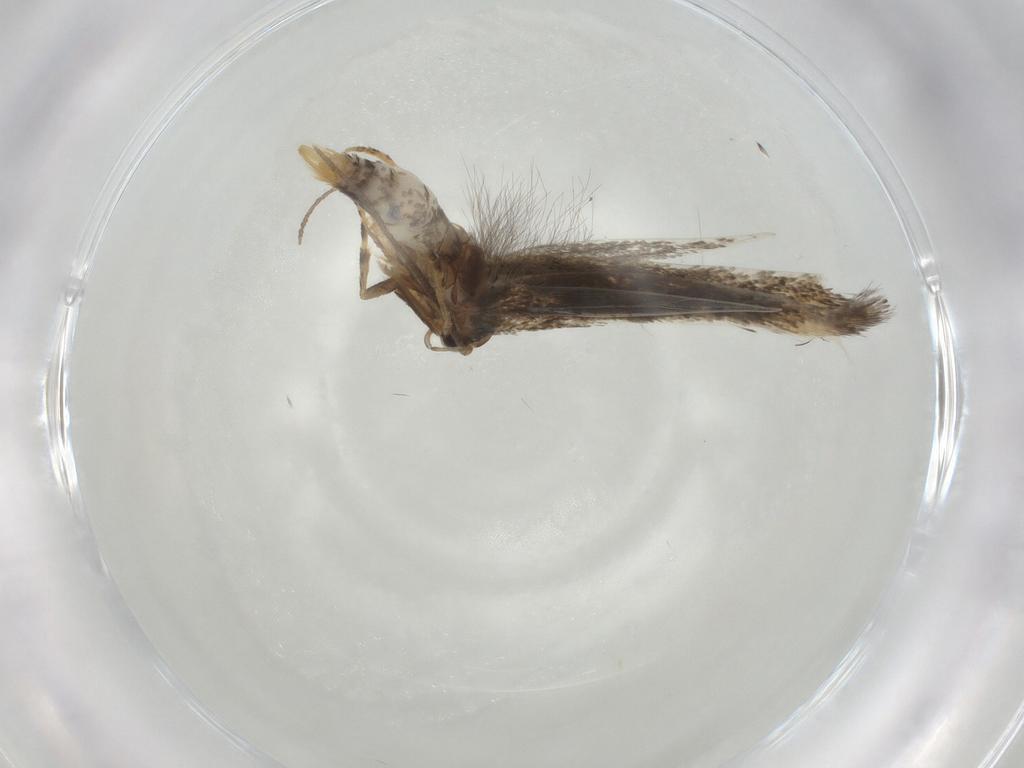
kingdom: Animalia
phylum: Arthropoda
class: Insecta
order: Lepidoptera
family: Elachistidae
